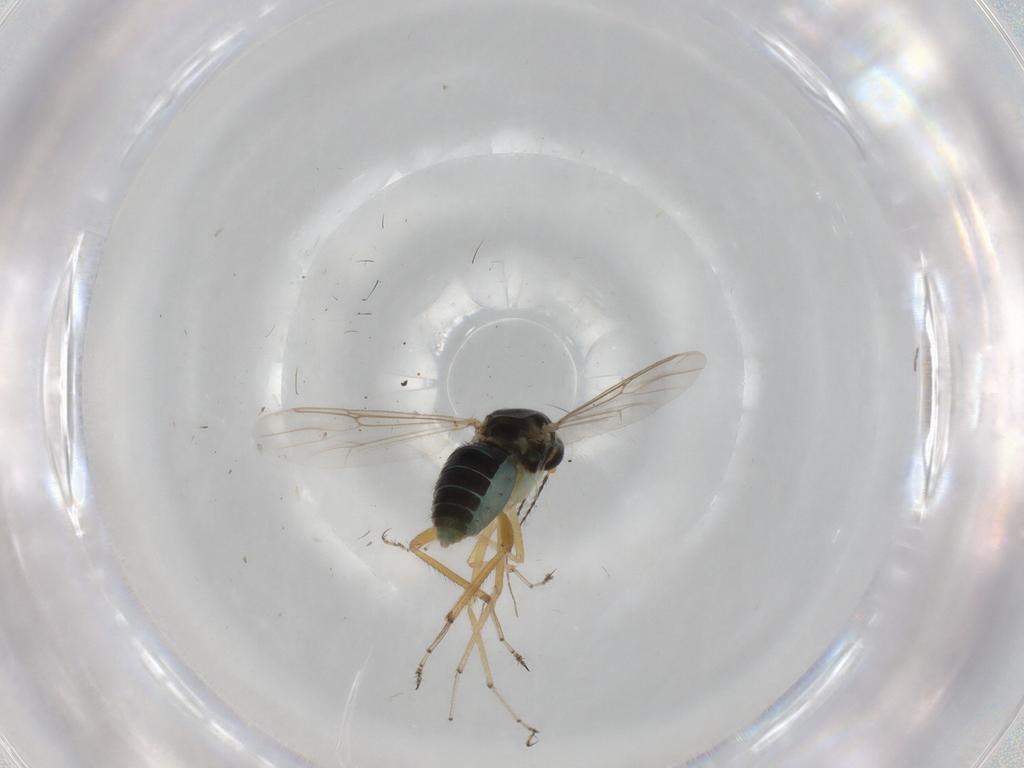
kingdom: Animalia
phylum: Arthropoda
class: Insecta
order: Diptera
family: Sciaridae
